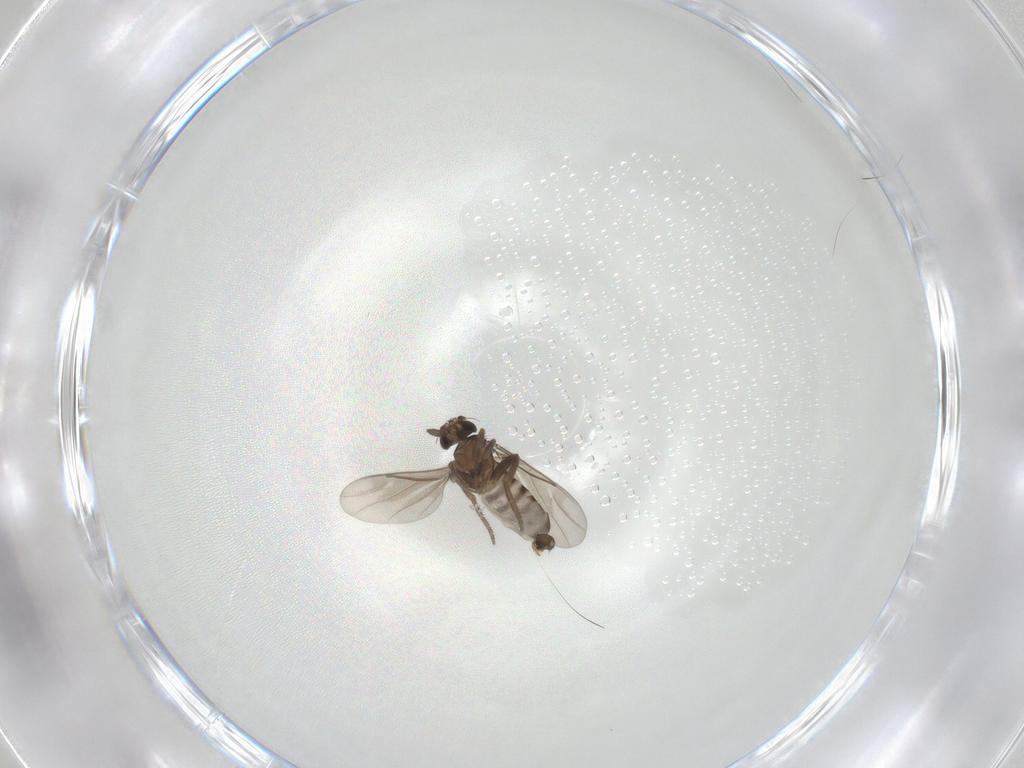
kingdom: Animalia
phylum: Arthropoda
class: Insecta
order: Diptera
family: Cecidomyiidae
